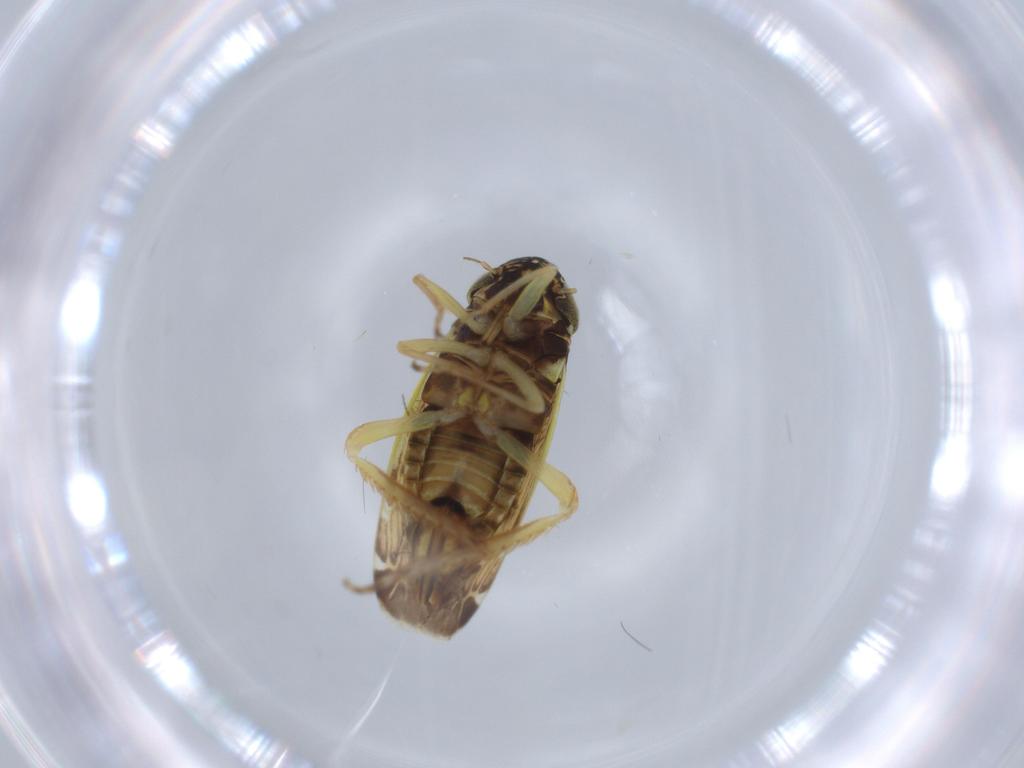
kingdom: Animalia
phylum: Arthropoda
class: Insecta
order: Hemiptera
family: Cicadellidae
